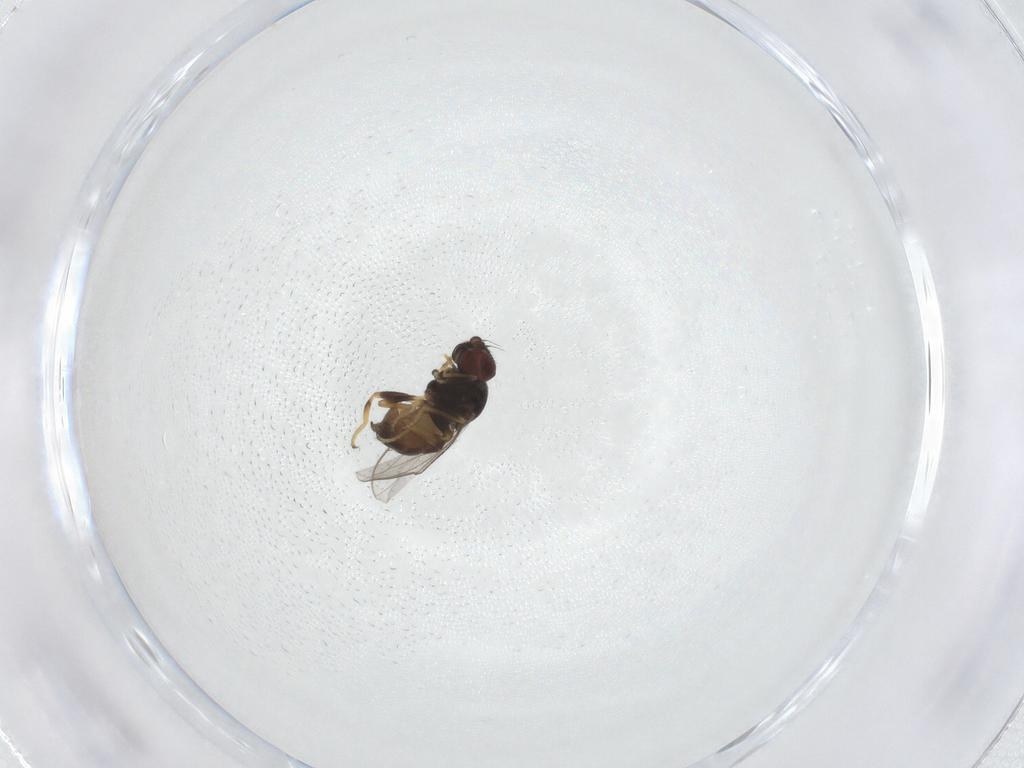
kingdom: Animalia
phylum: Arthropoda
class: Insecta
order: Diptera
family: Chloropidae
